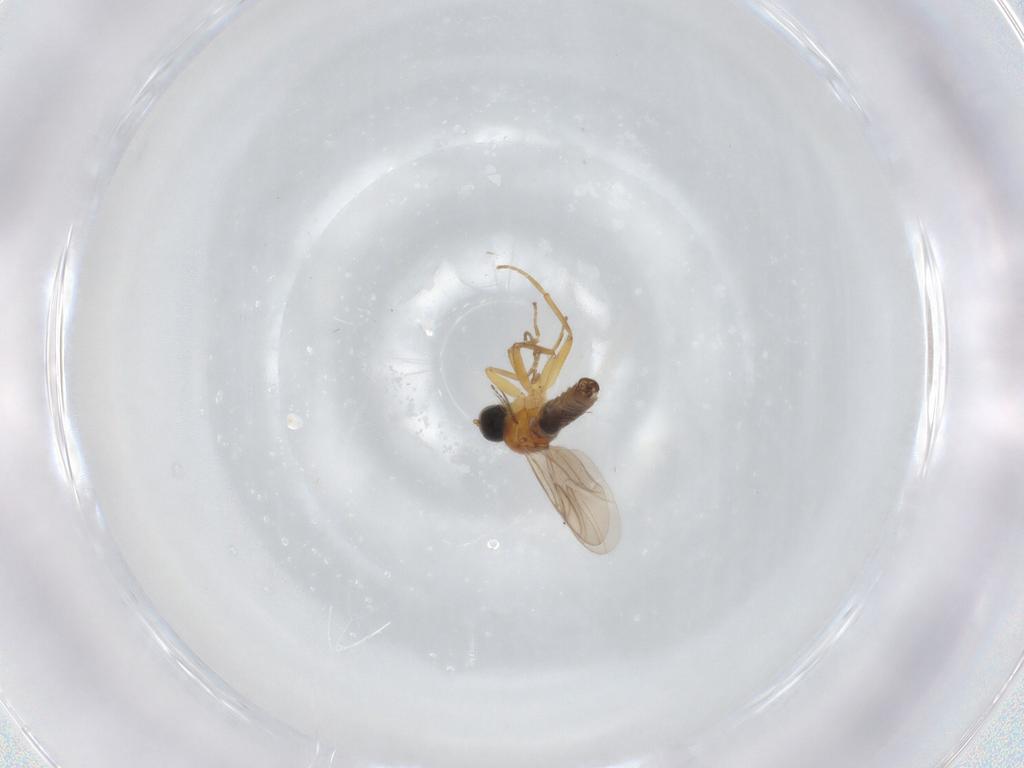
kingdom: Animalia
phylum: Arthropoda
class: Insecta
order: Diptera
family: Hybotidae
